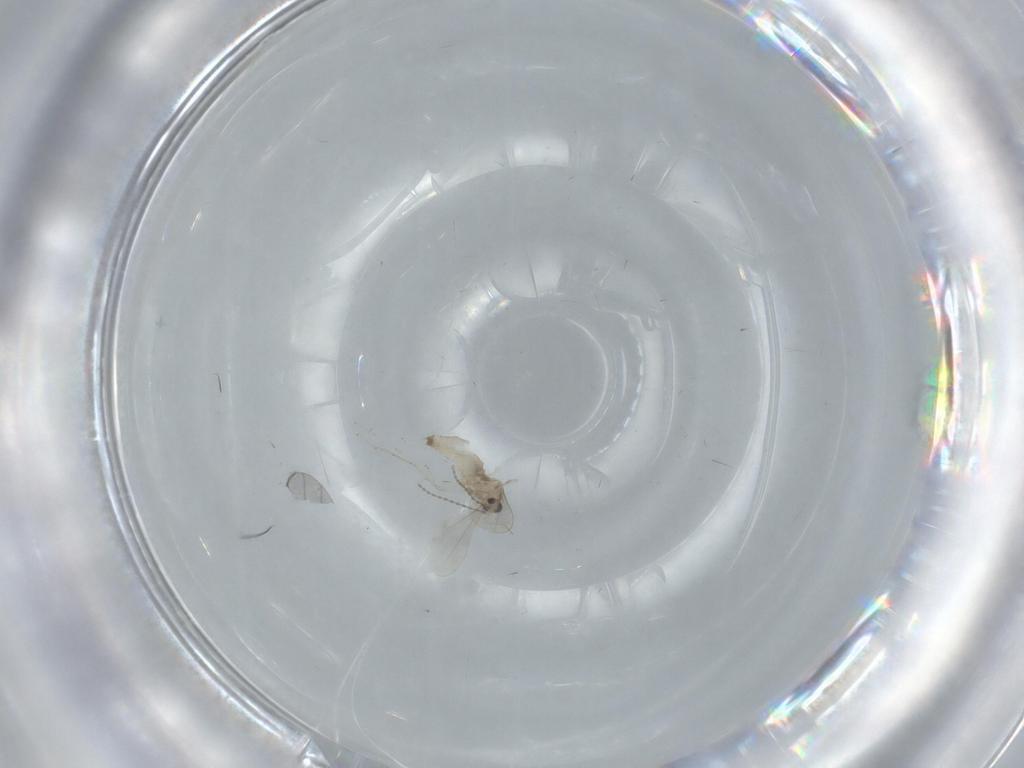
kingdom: Animalia
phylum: Arthropoda
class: Insecta
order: Diptera
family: Cecidomyiidae
